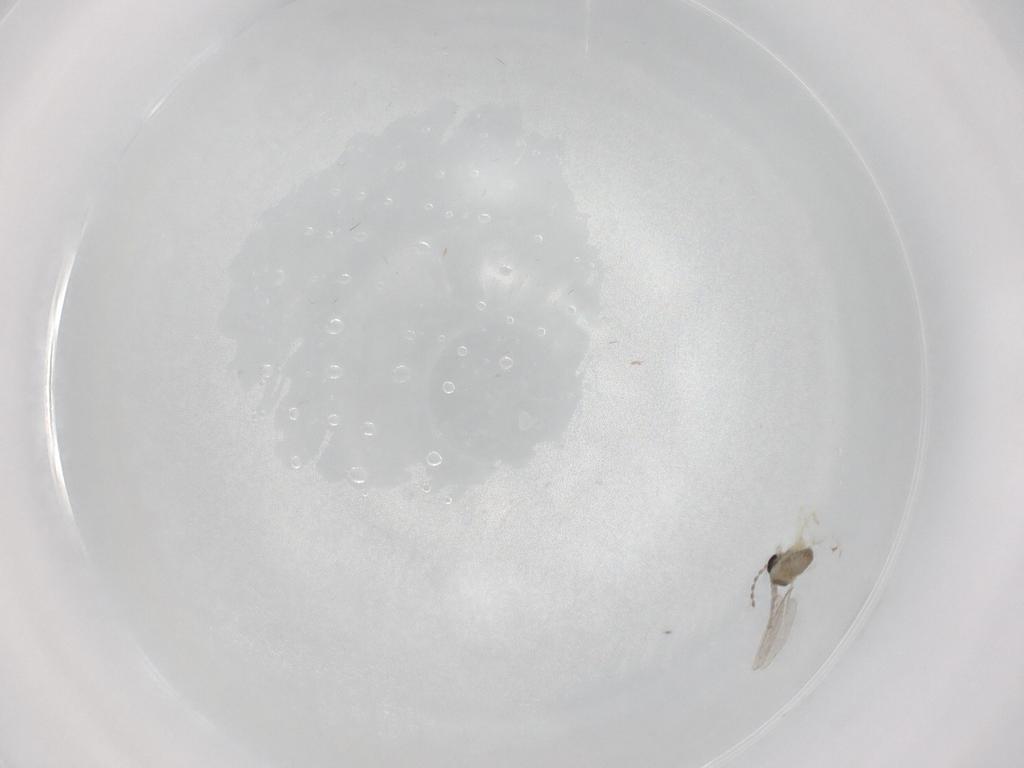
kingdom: Animalia
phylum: Arthropoda
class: Insecta
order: Diptera
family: Cecidomyiidae
